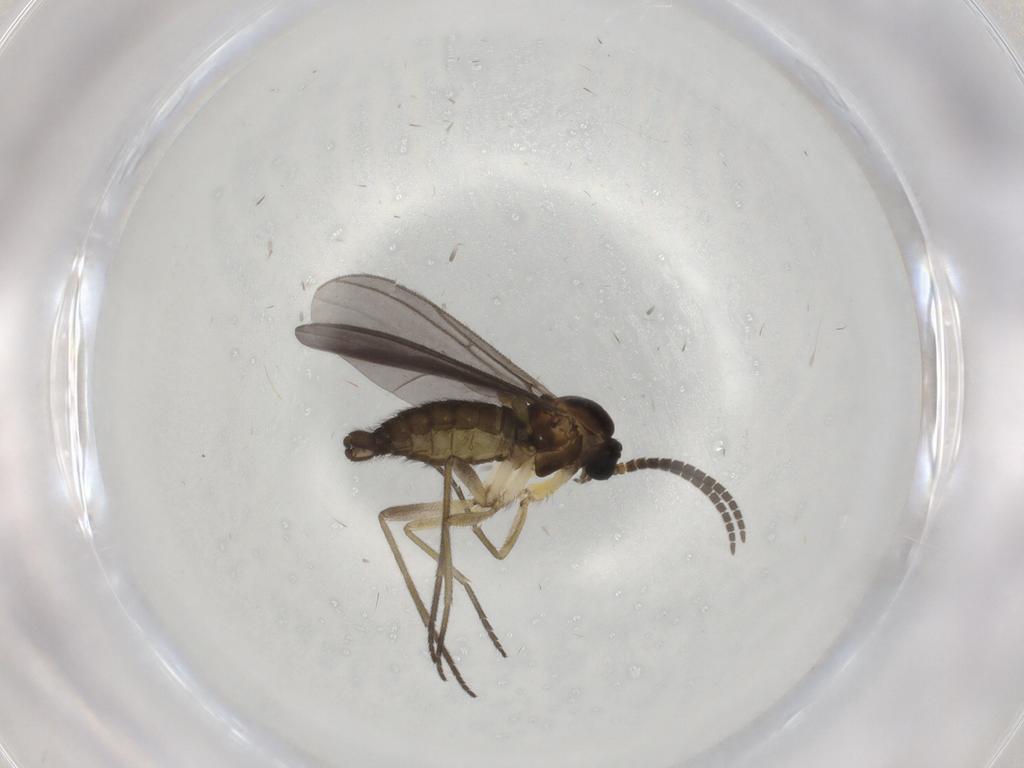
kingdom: Animalia
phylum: Arthropoda
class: Insecta
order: Diptera
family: Sciaridae
